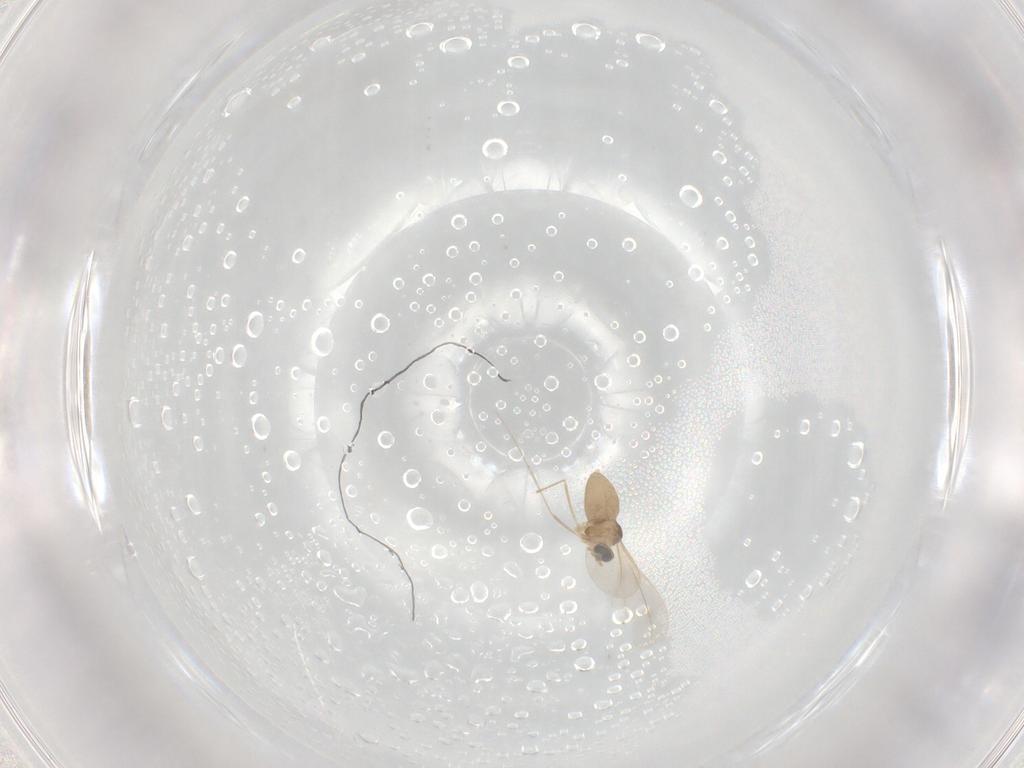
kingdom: Animalia
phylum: Arthropoda
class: Insecta
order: Diptera
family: Cecidomyiidae
